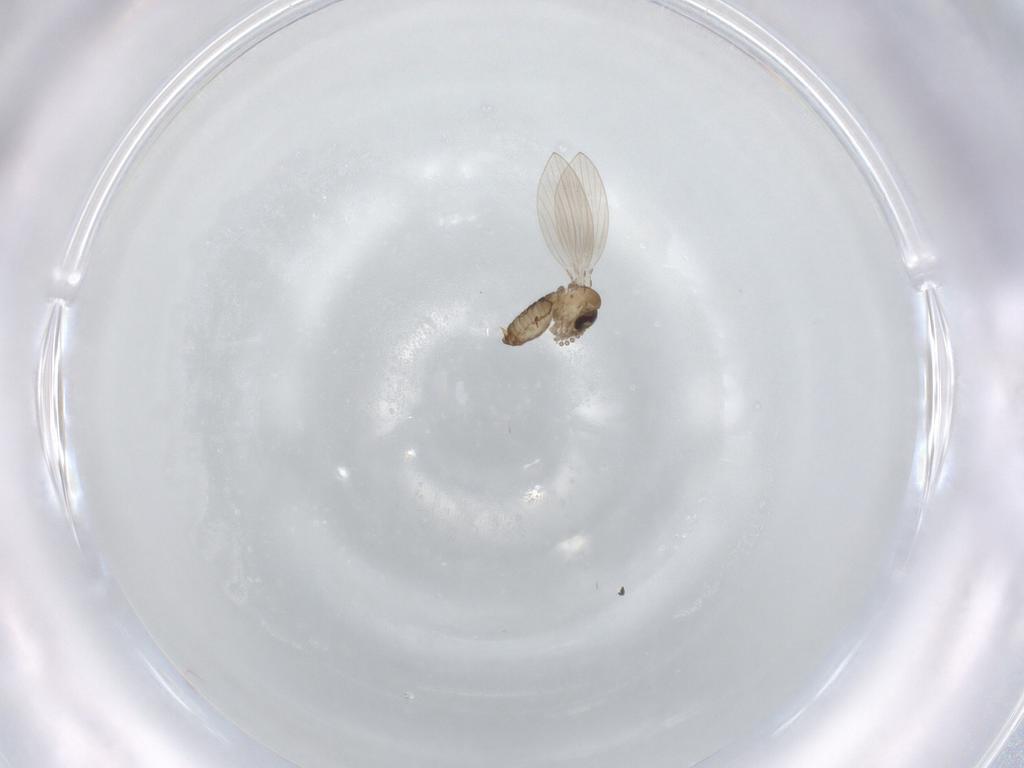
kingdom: Animalia
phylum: Arthropoda
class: Insecta
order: Diptera
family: Psychodidae
